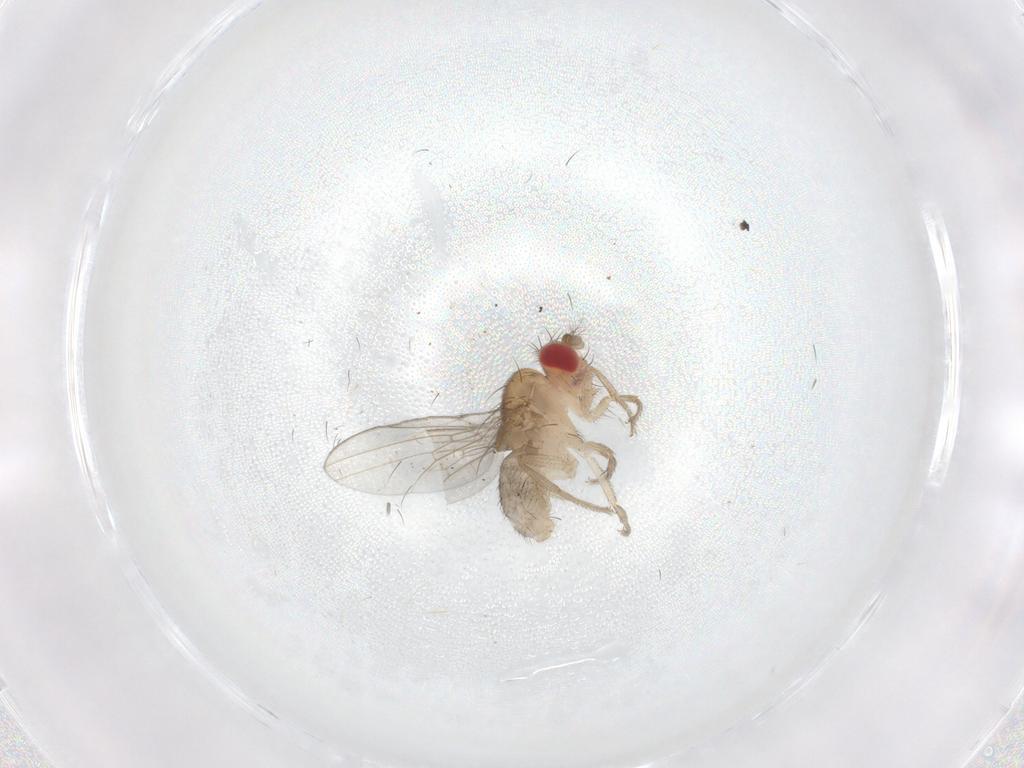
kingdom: Animalia
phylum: Arthropoda
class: Insecta
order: Diptera
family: Drosophilidae
